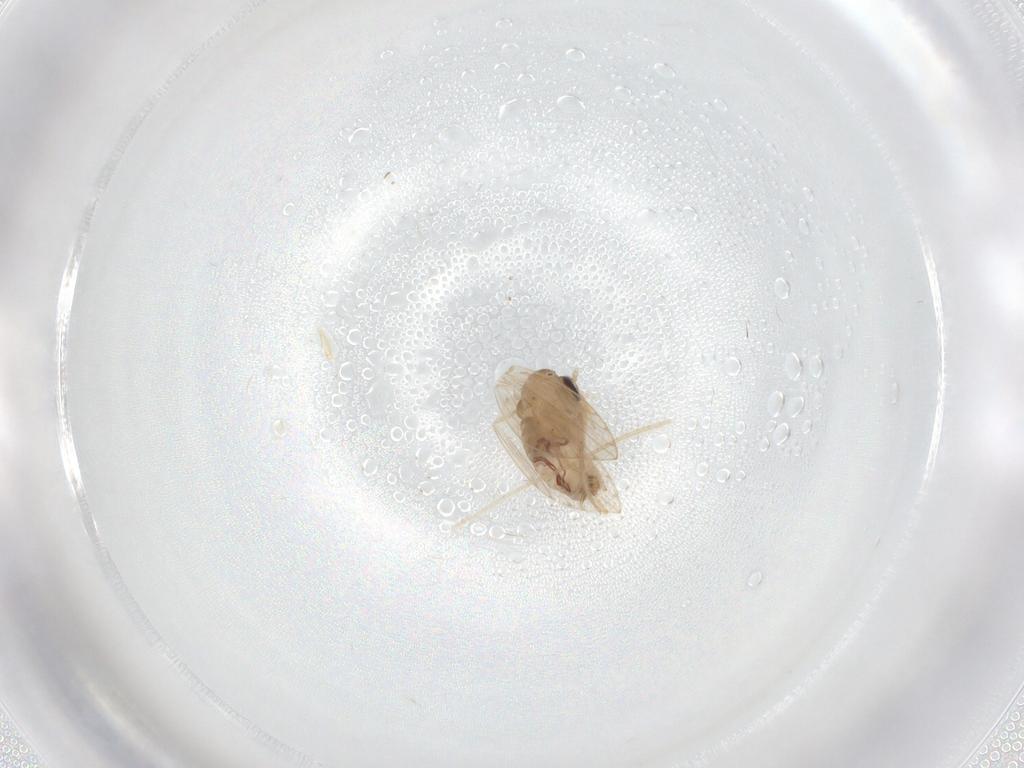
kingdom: Animalia
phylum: Arthropoda
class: Insecta
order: Diptera
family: Psychodidae
